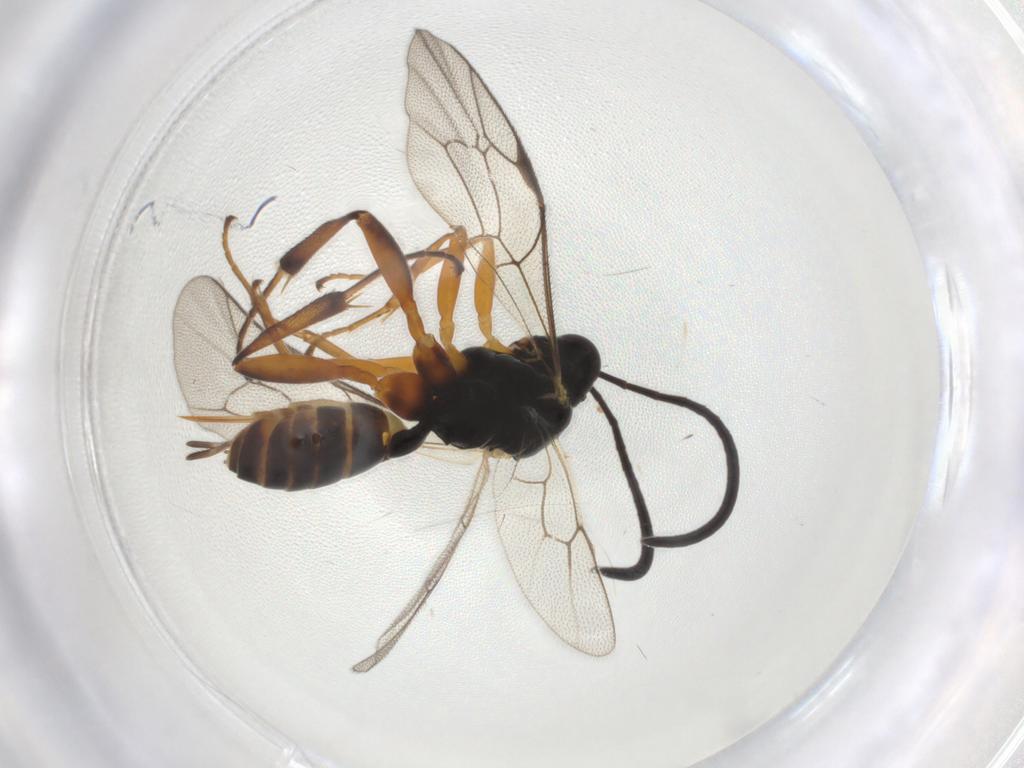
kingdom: Animalia
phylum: Arthropoda
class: Insecta
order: Hymenoptera
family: Ichneumonidae
